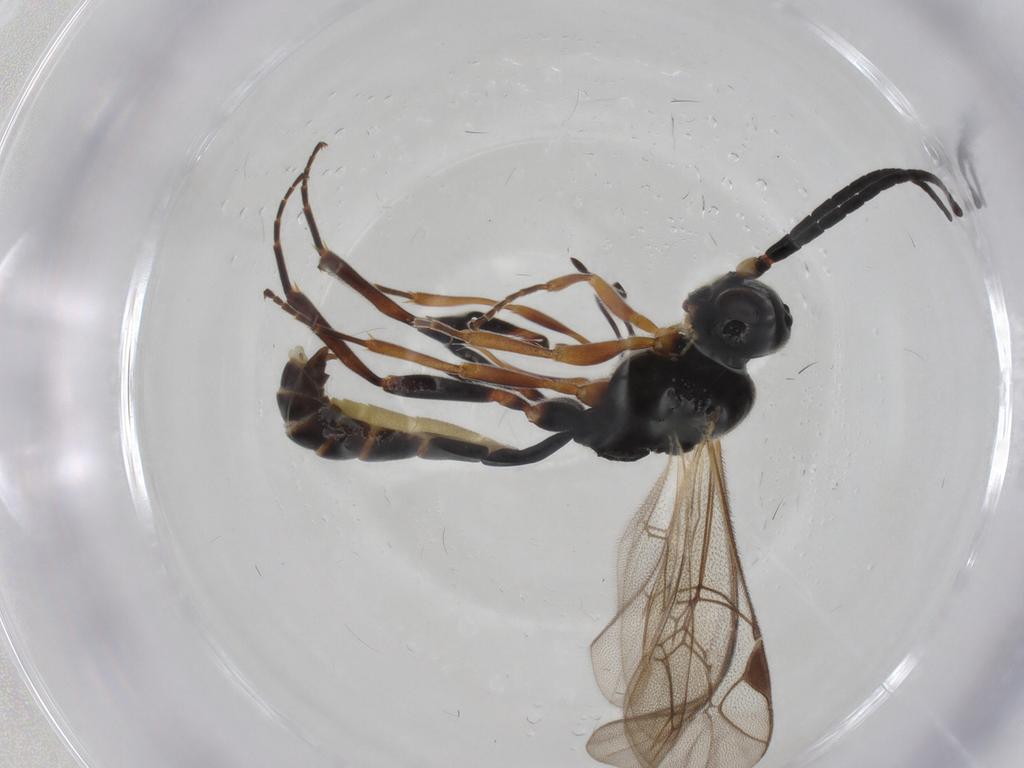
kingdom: Animalia
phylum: Arthropoda
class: Insecta
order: Hymenoptera
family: Ichneumonidae
